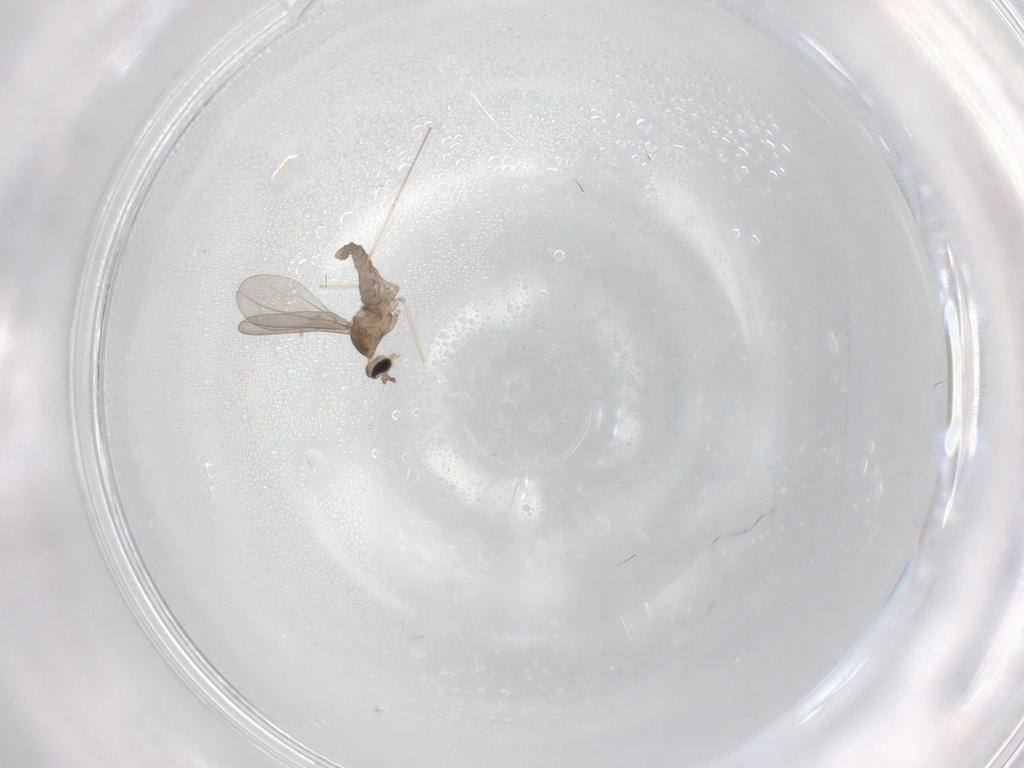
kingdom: Animalia
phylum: Arthropoda
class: Insecta
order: Diptera
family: Cecidomyiidae
